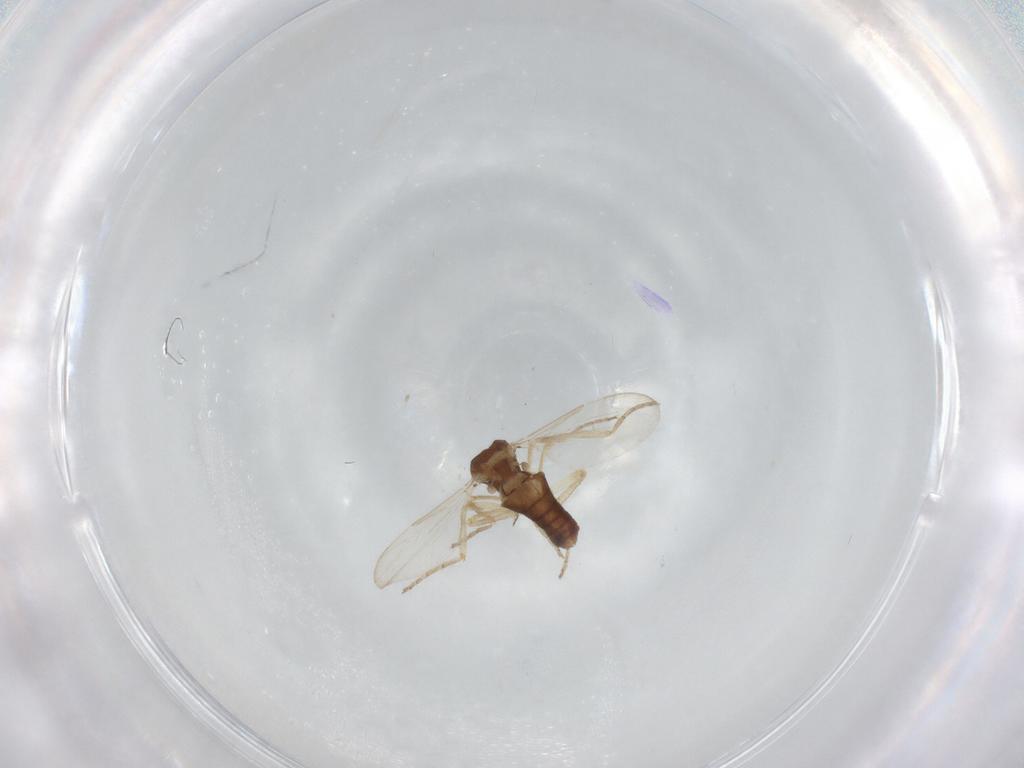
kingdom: Animalia
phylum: Arthropoda
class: Insecta
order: Diptera
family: Ceratopogonidae
